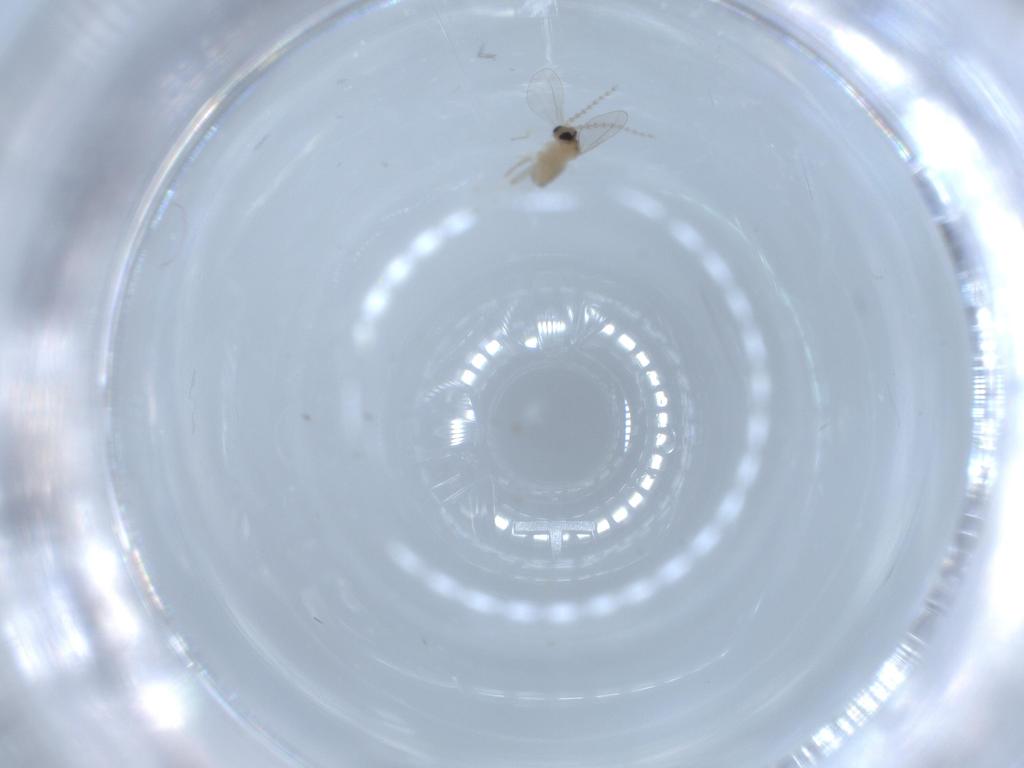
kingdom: Animalia
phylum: Arthropoda
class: Insecta
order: Diptera
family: Cecidomyiidae
